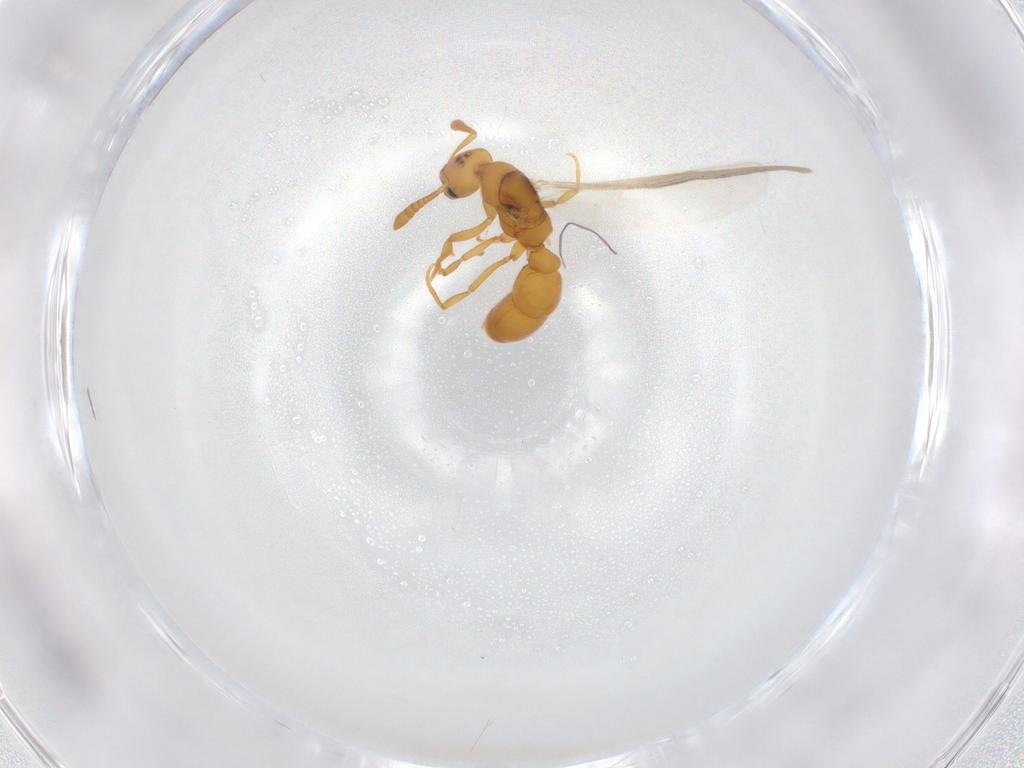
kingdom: Animalia
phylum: Arthropoda
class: Insecta
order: Hymenoptera
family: Formicidae
